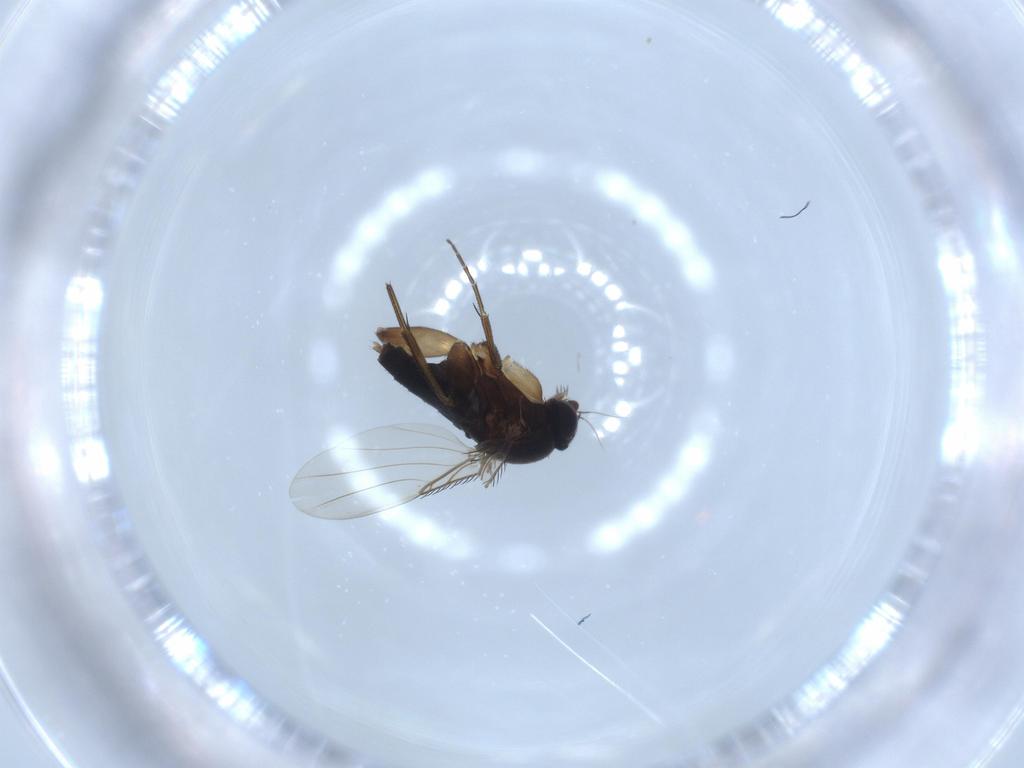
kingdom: Animalia
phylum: Arthropoda
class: Insecta
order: Diptera
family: Phoridae
